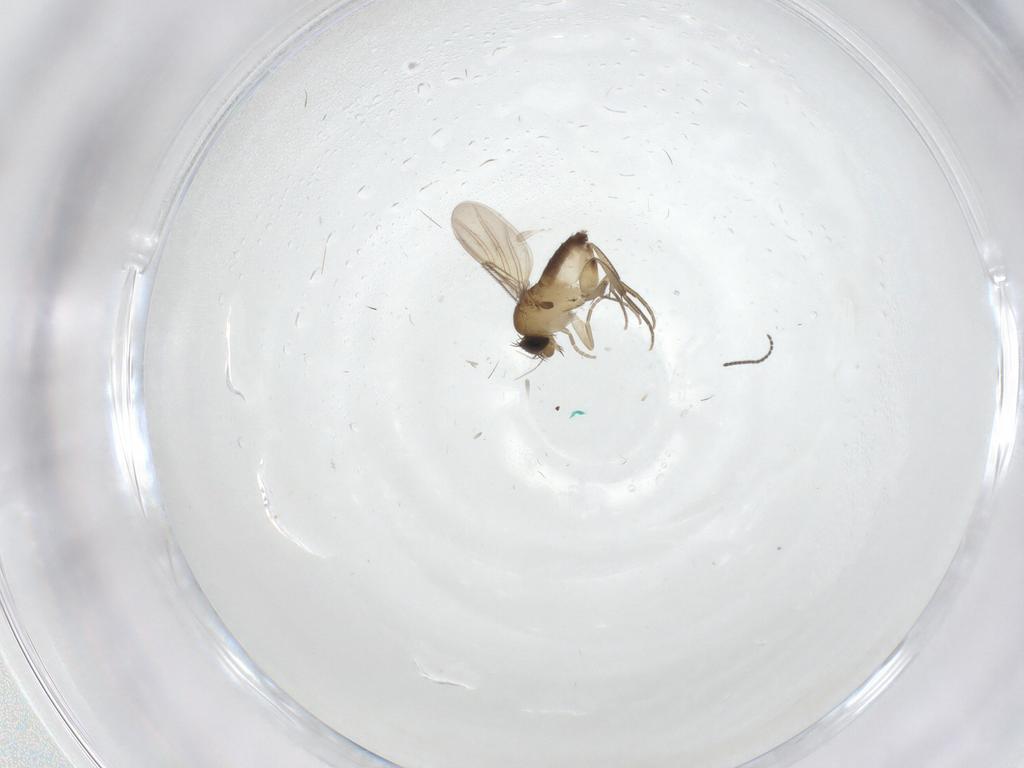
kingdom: Animalia
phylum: Arthropoda
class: Insecta
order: Diptera
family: Phoridae
